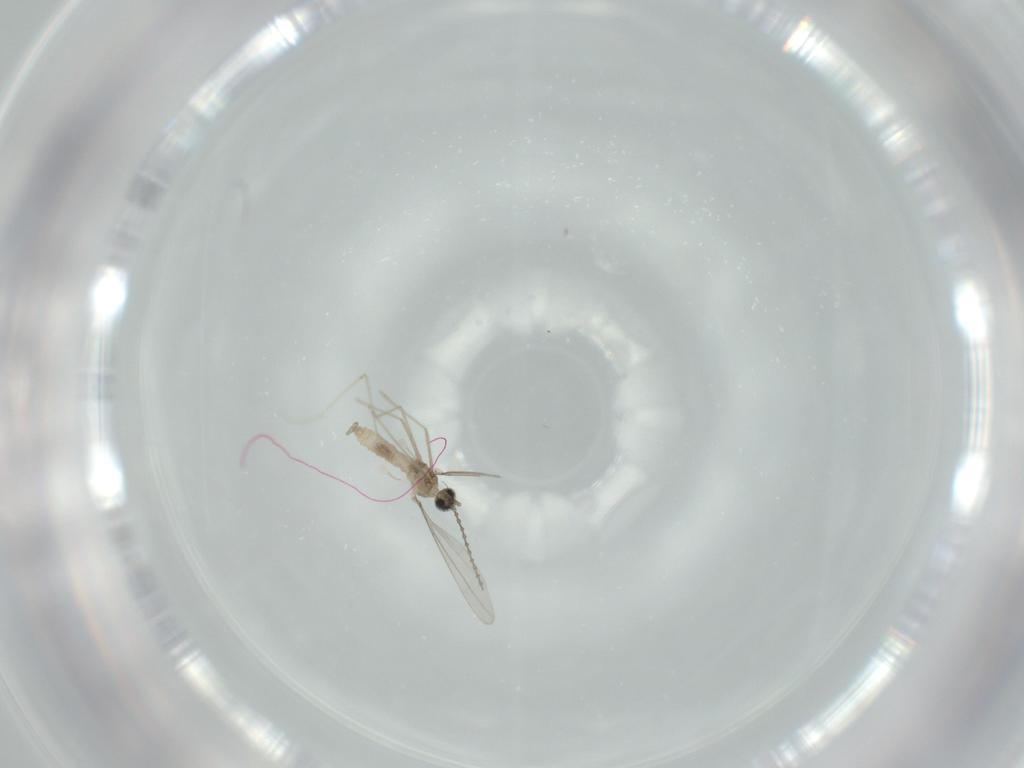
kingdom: Animalia
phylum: Arthropoda
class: Insecta
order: Diptera
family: Cecidomyiidae
